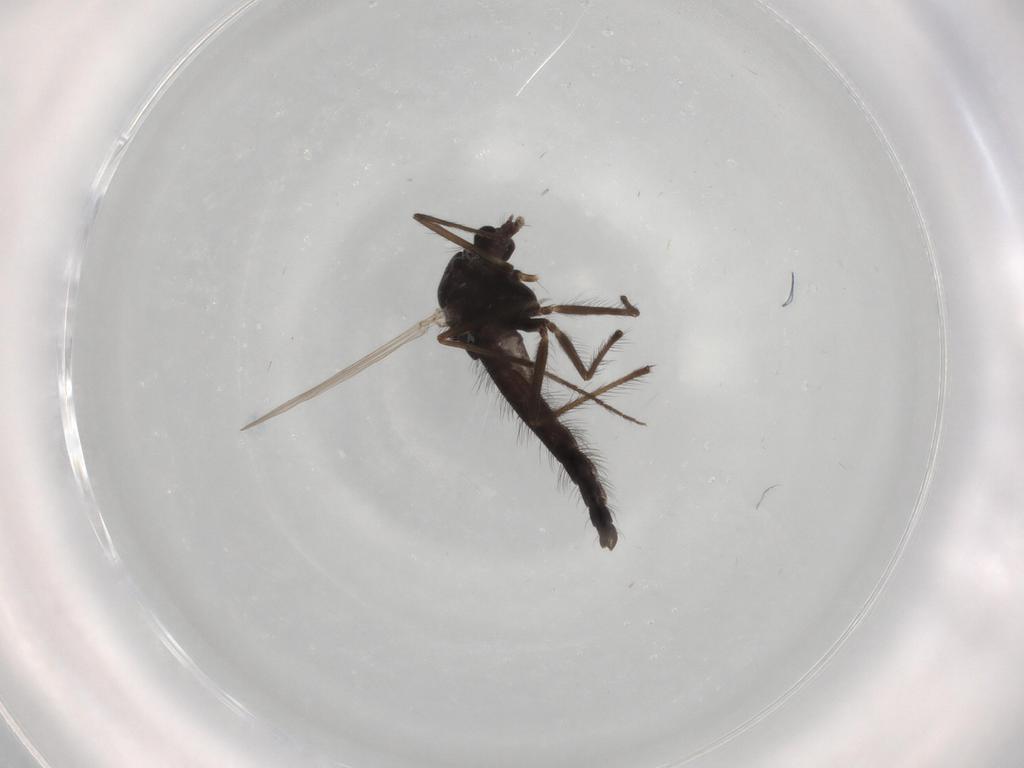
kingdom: Animalia
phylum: Arthropoda
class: Insecta
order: Diptera
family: Chironomidae
